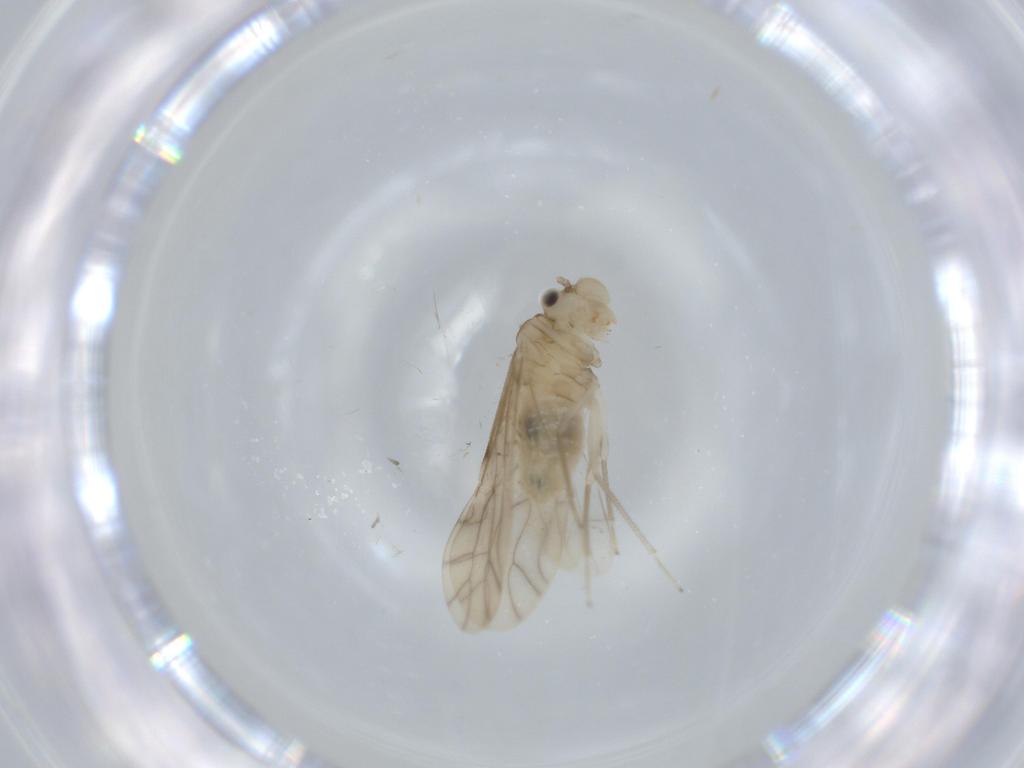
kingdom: Animalia
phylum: Arthropoda
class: Insecta
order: Psocodea
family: Caeciliusidae
